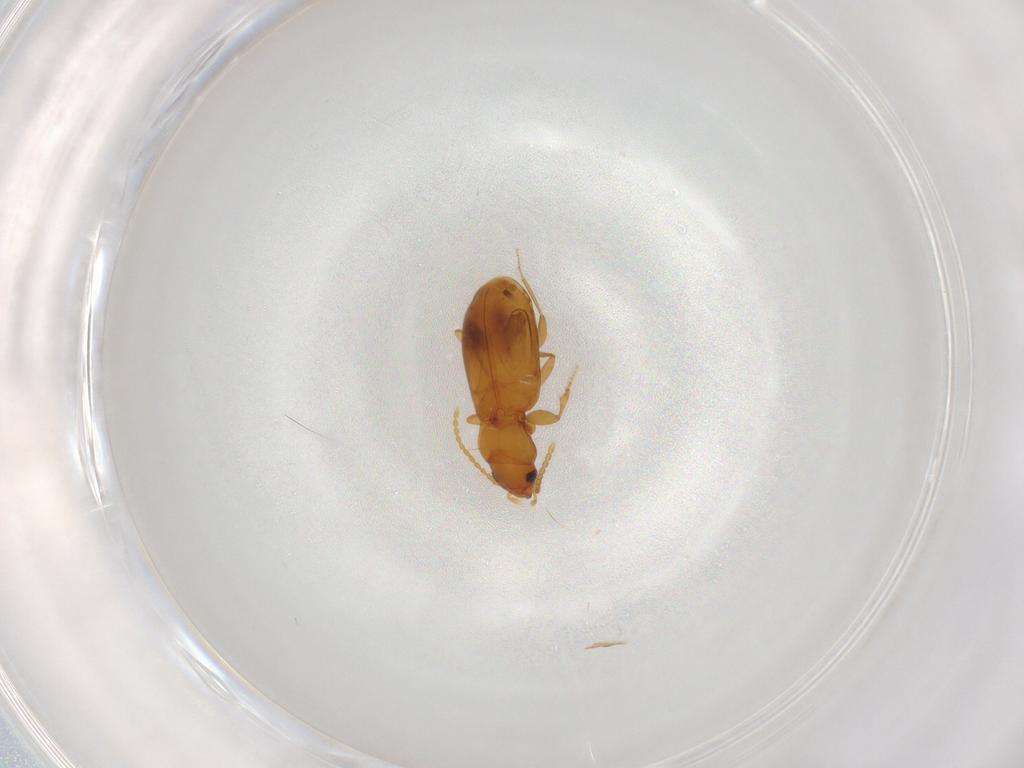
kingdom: Animalia
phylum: Arthropoda
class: Insecta
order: Coleoptera
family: Carabidae
